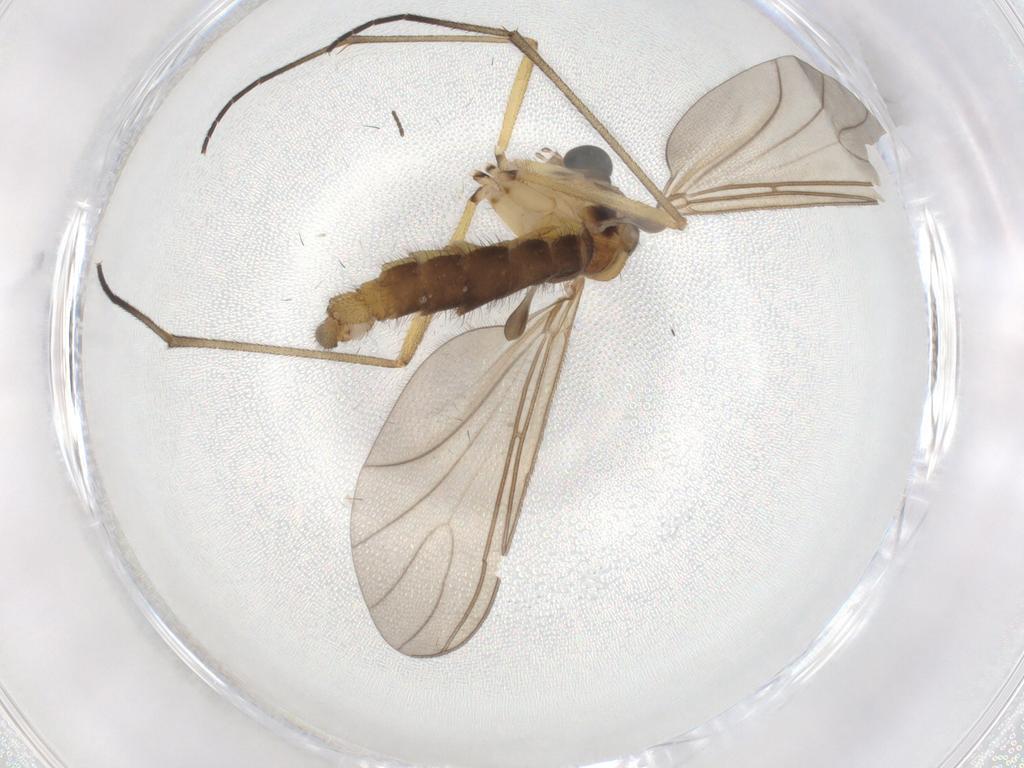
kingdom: Animalia
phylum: Arthropoda
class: Insecta
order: Diptera
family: Sciaridae
